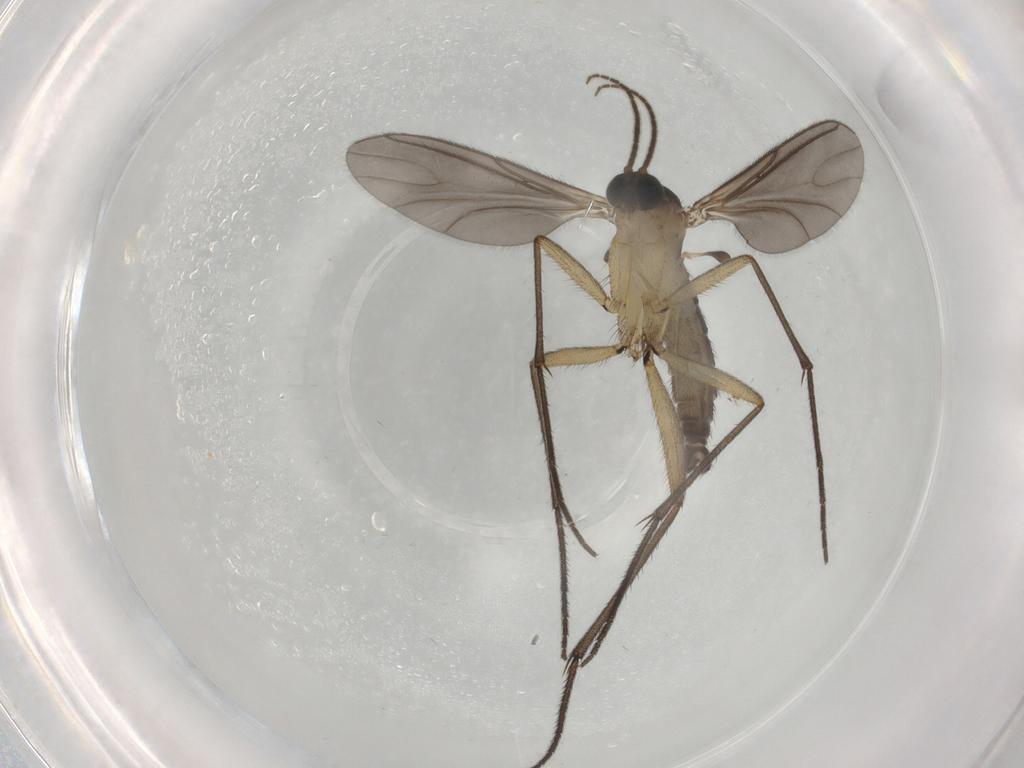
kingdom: Animalia
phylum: Arthropoda
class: Insecta
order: Diptera
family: Sciaridae
